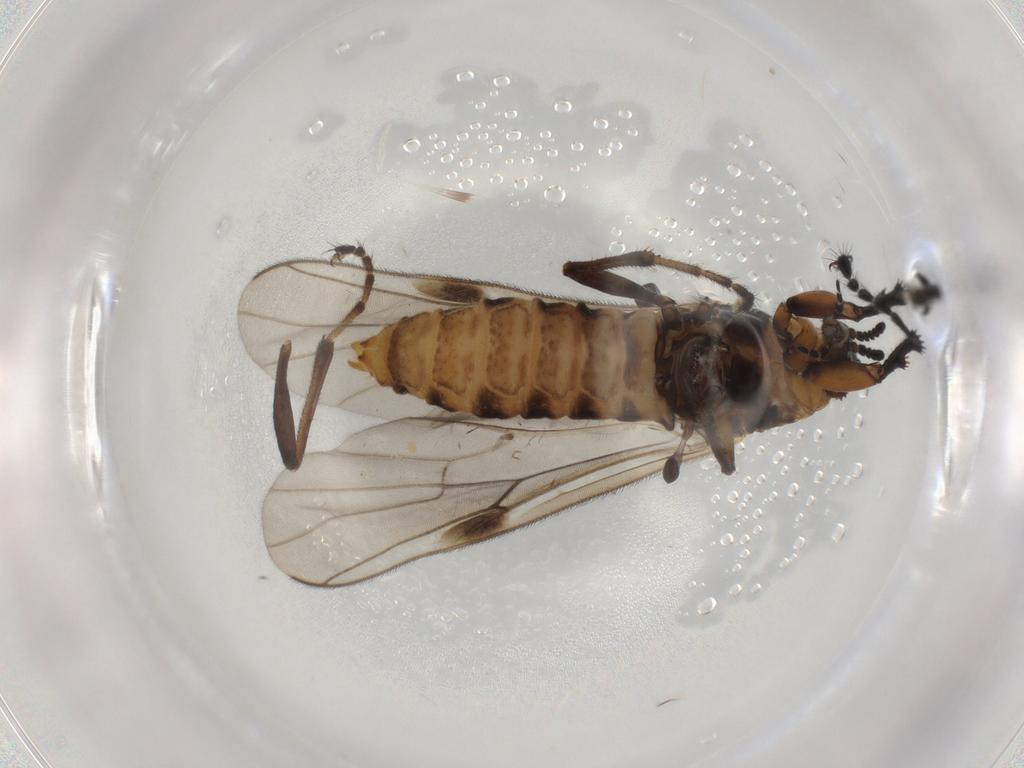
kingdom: Animalia
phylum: Arthropoda
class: Insecta
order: Diptera
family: Bibionidae
